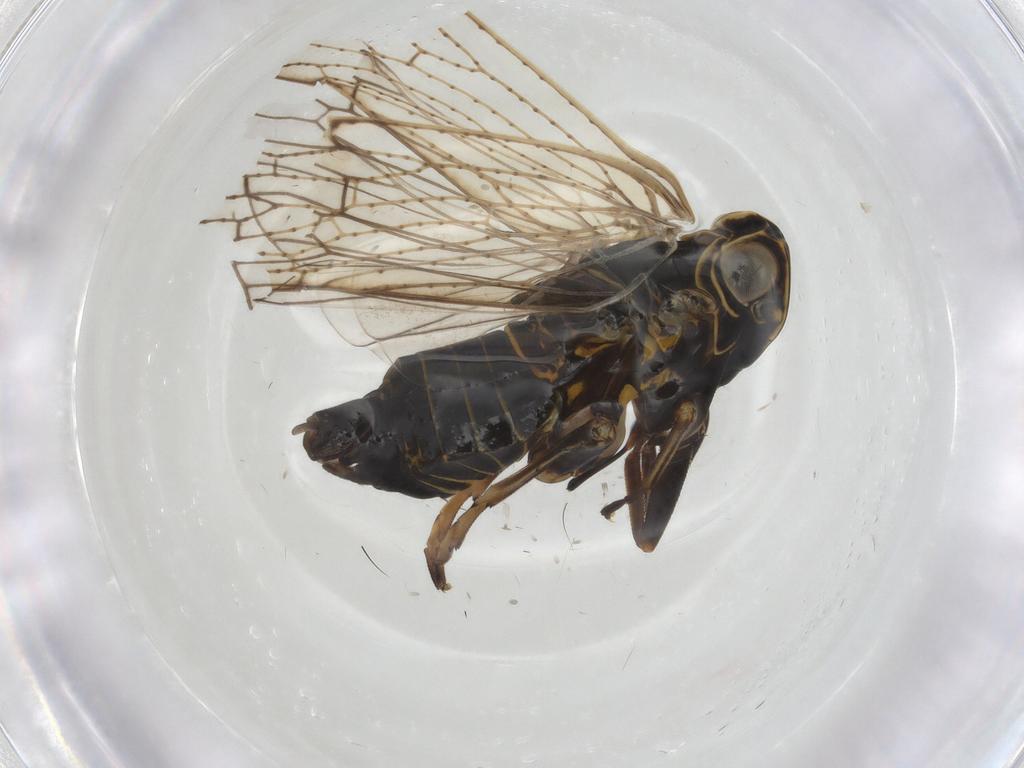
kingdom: Animalia
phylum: Arthropoda
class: Insecta
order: Hemiptera
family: Cixiidae
